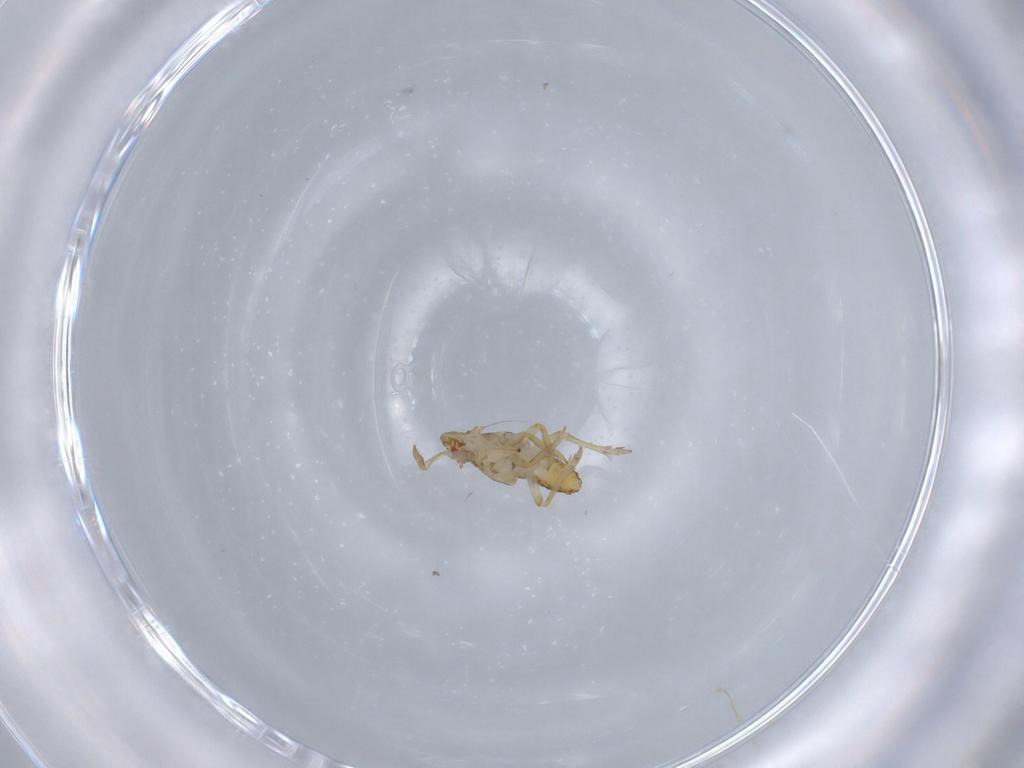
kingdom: Animalia
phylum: Arthropoda
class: Insecta
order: Hemiptera
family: Delphacidae
